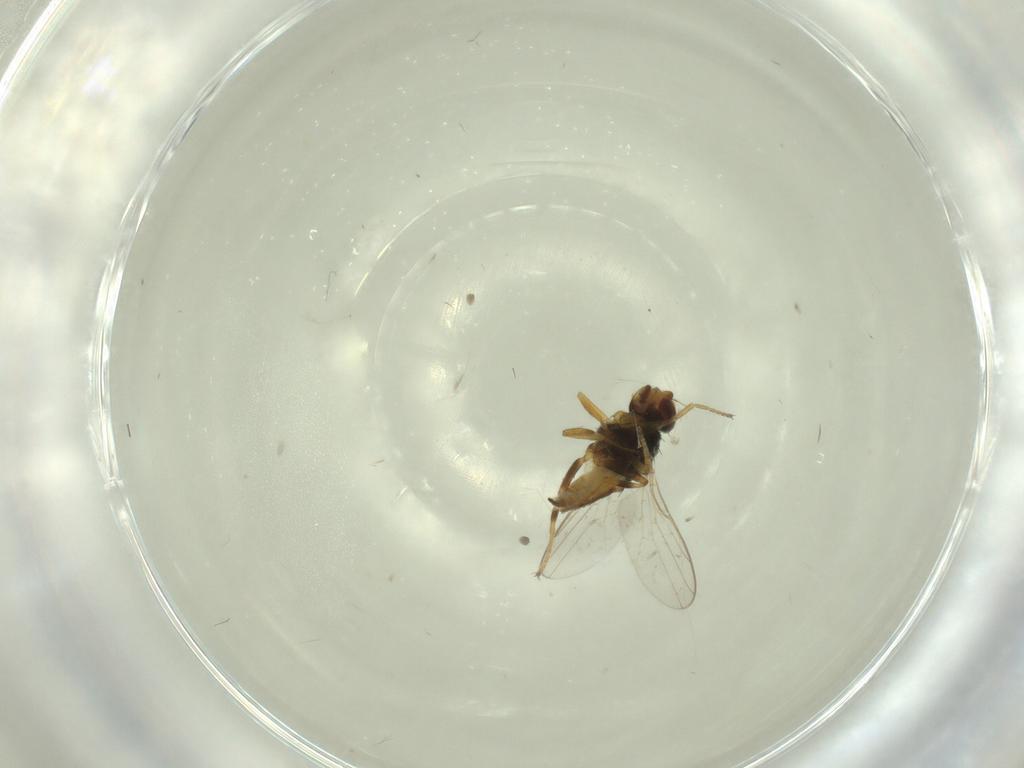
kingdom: Animalia
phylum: Arthropoda
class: Insecta
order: Diptera
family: Chloropidae
